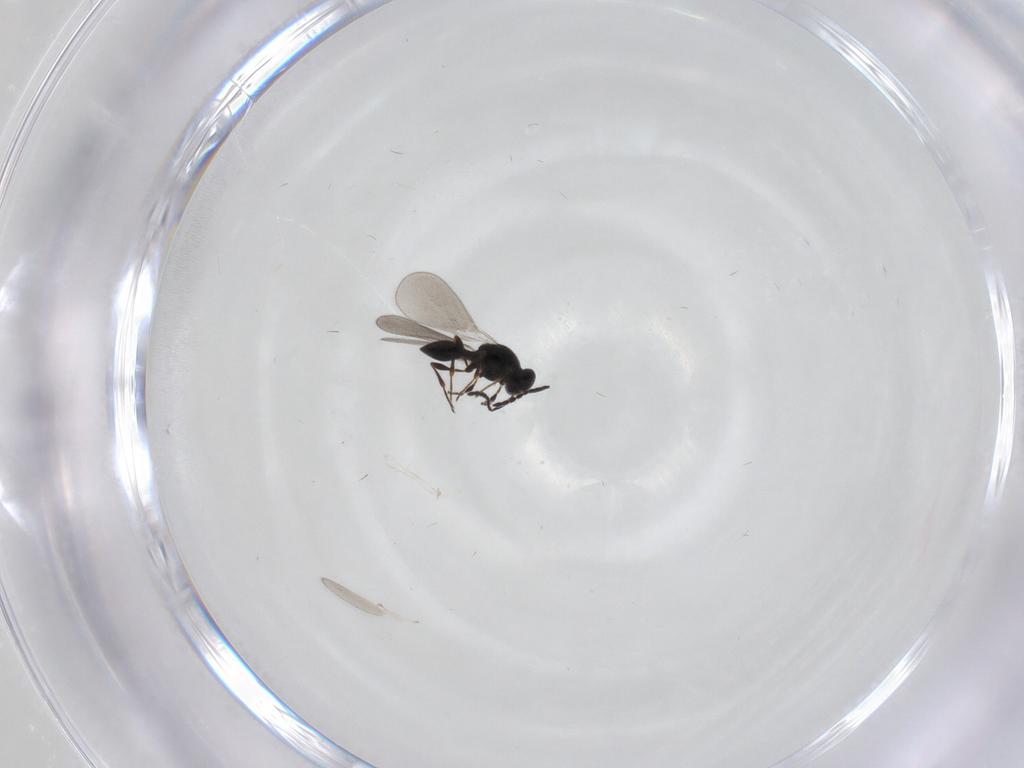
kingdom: Animalia
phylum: Arthropoda
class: Insecta
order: Hymenoptera
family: Platygastridae
